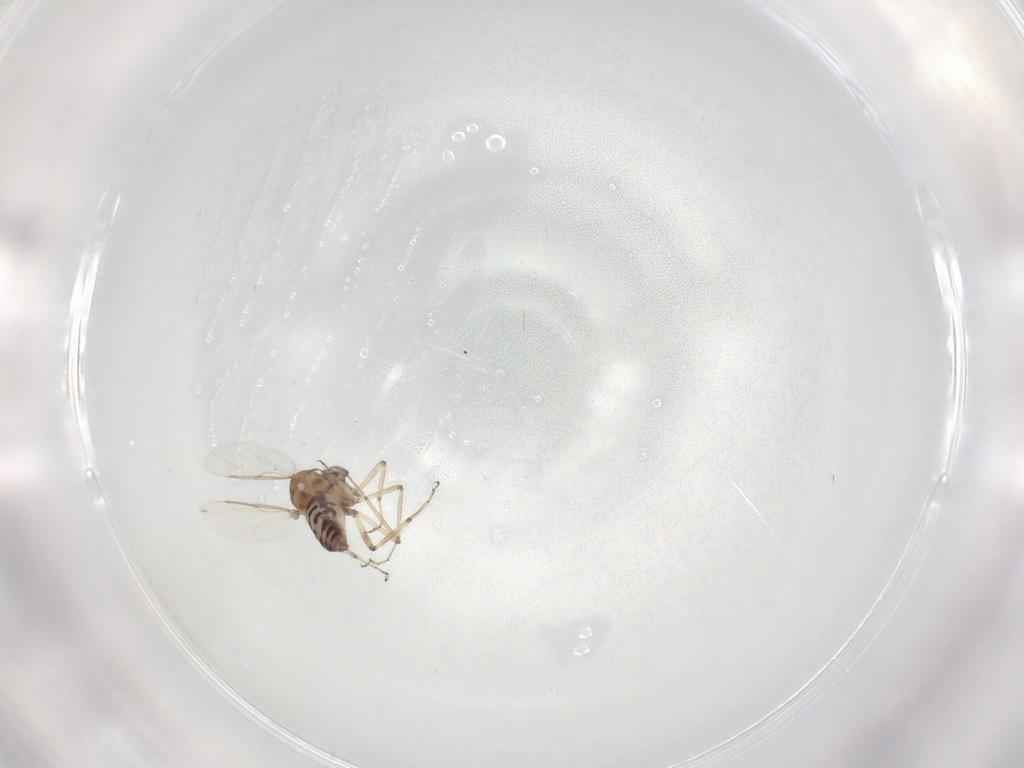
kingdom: Animalia
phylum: Arthropoda
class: Insecta
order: Diptera
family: Ceratopogonidae
